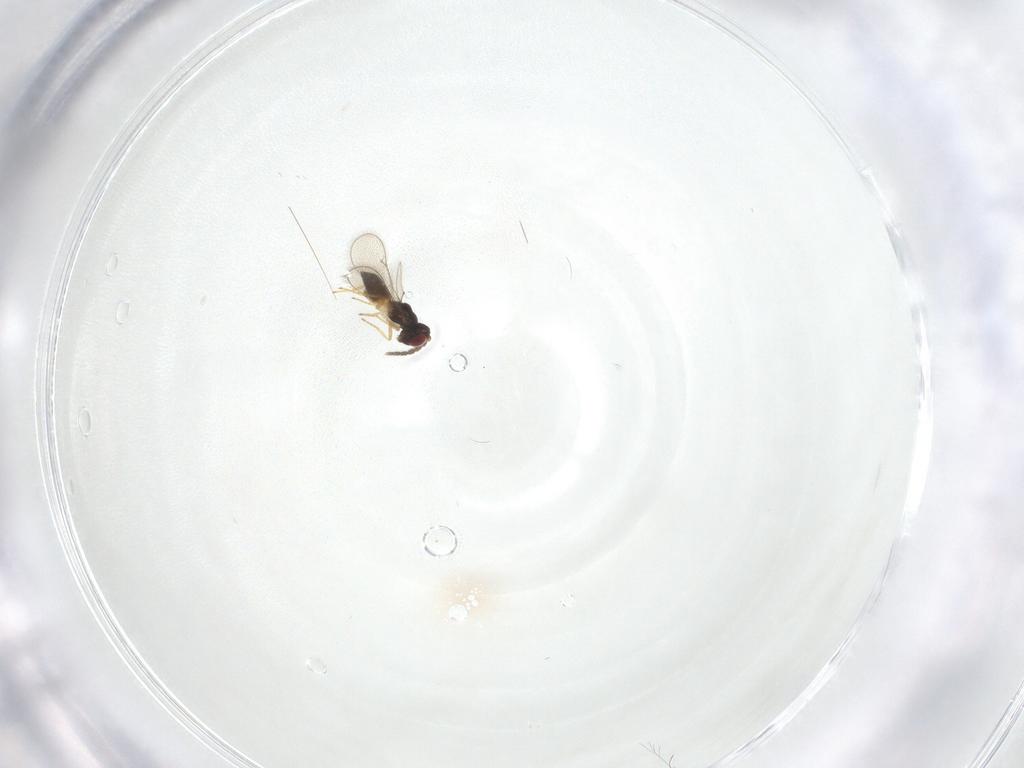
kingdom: Animalia
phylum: Arthropoda
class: Insecta
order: Hymenoptera
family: Eulophidae
